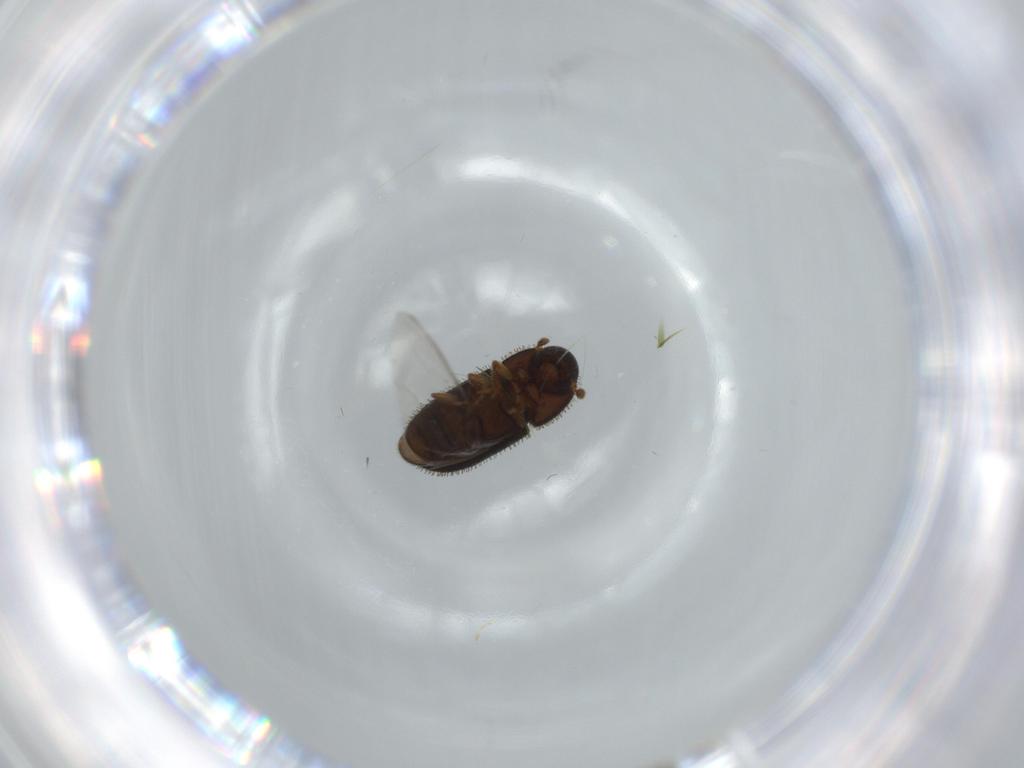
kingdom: Animalia
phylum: Arthropoda
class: Insecta
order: Coleoptera
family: Curculionidae
